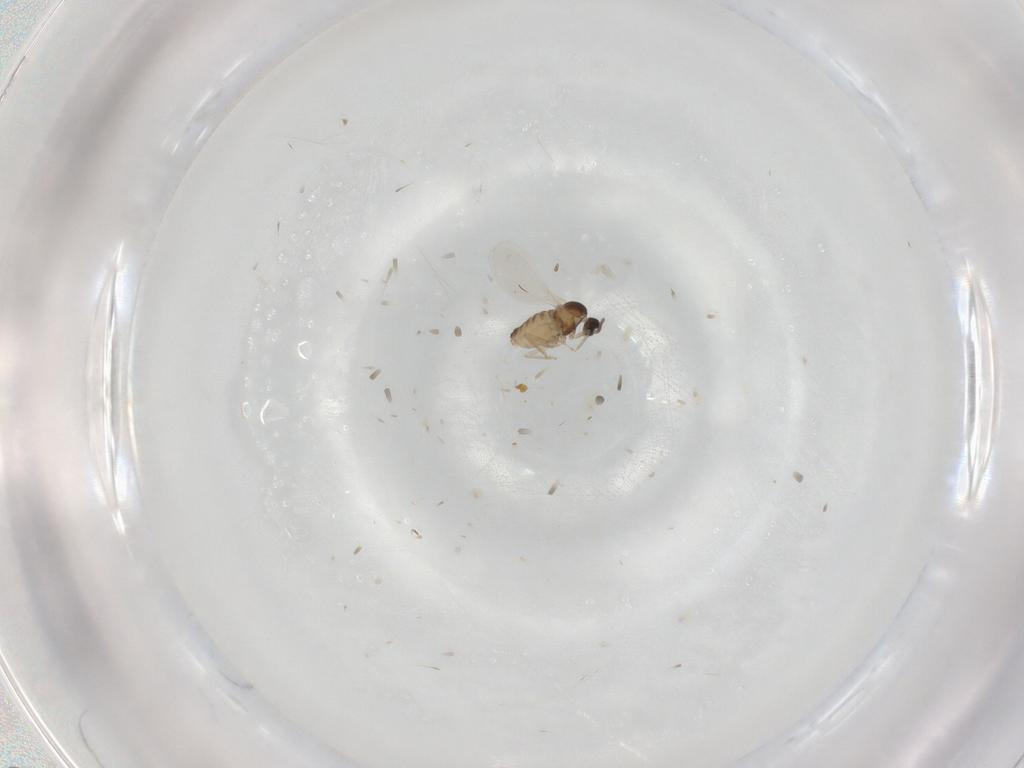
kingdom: Animalia
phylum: Arthropoda
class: Insecta
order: Diptera
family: Cecidomyiidae
